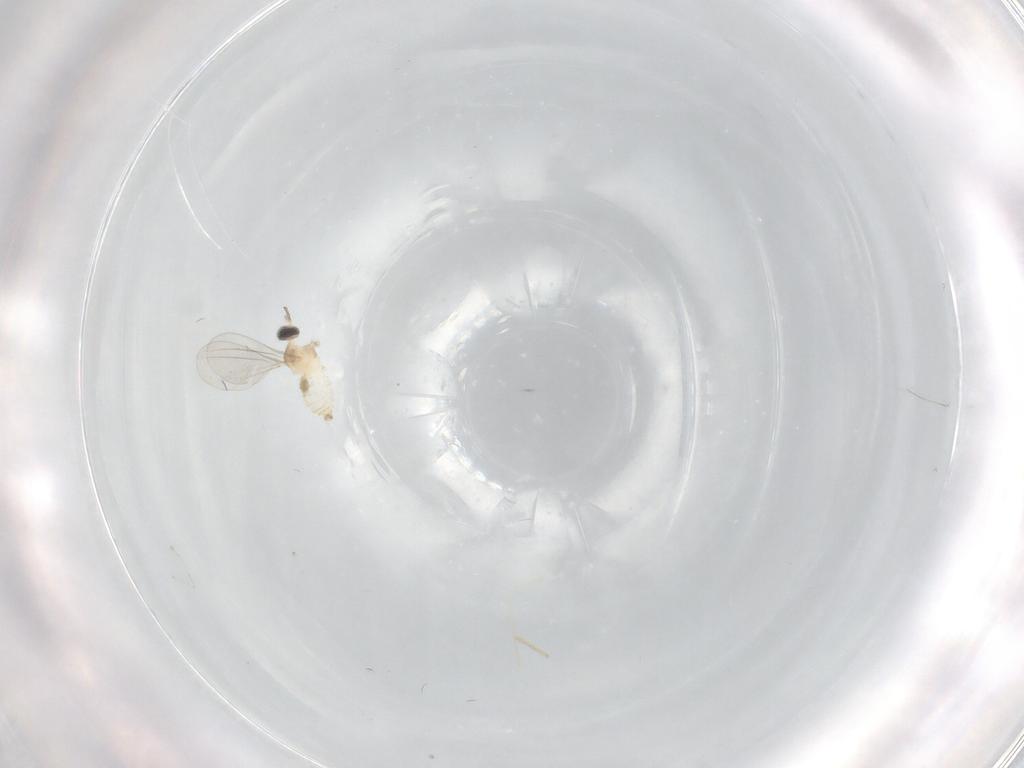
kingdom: Animalia
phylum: Arthropoda
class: Insecta
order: Diptera
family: Cecidomyiidae
